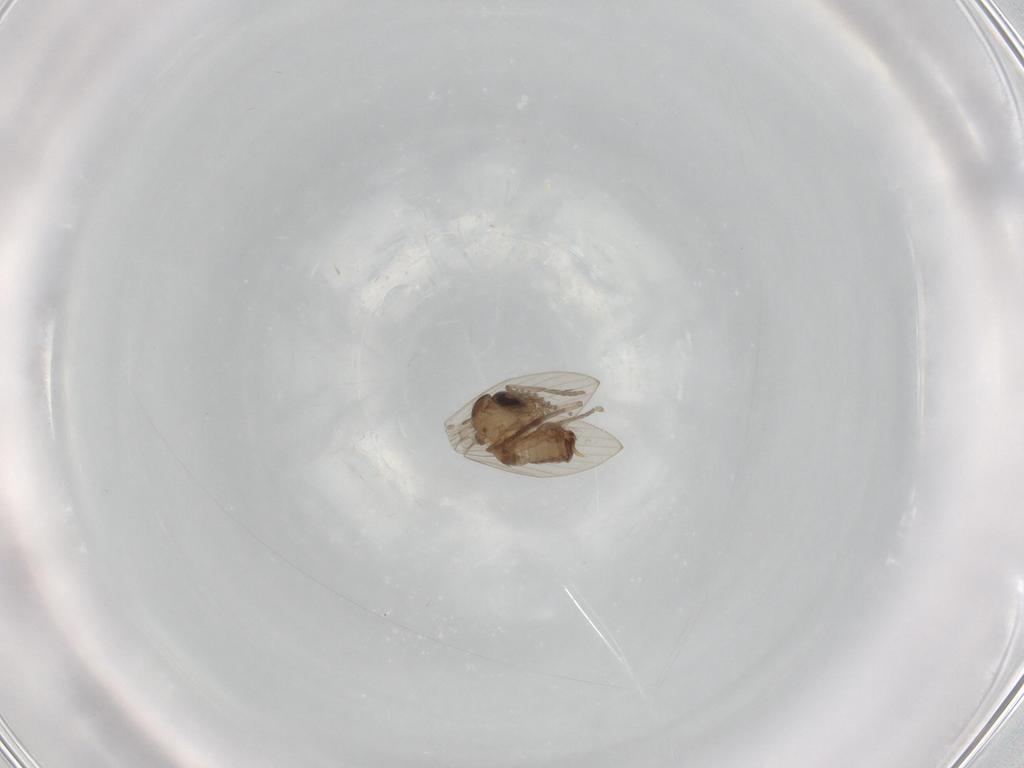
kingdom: Animalia
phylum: Arthropoda
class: Insecta
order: Diptera
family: Psychodidae
